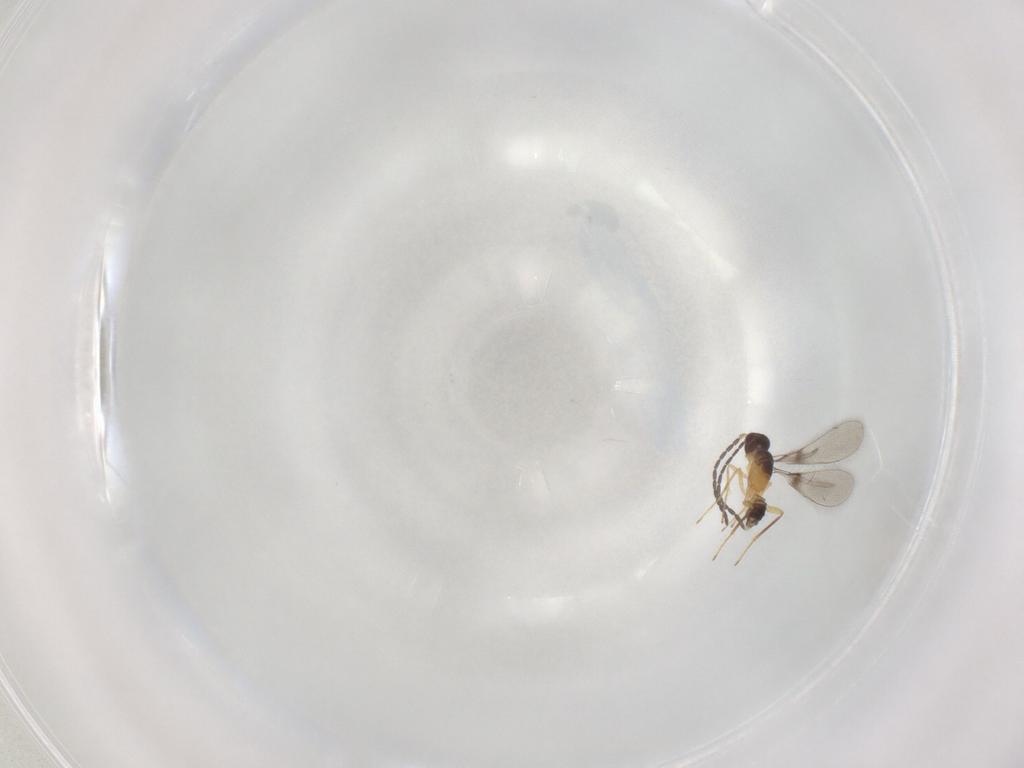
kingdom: Animalia
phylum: Arthropoda
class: Insecta
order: Hymenoptera
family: Mymaridae
